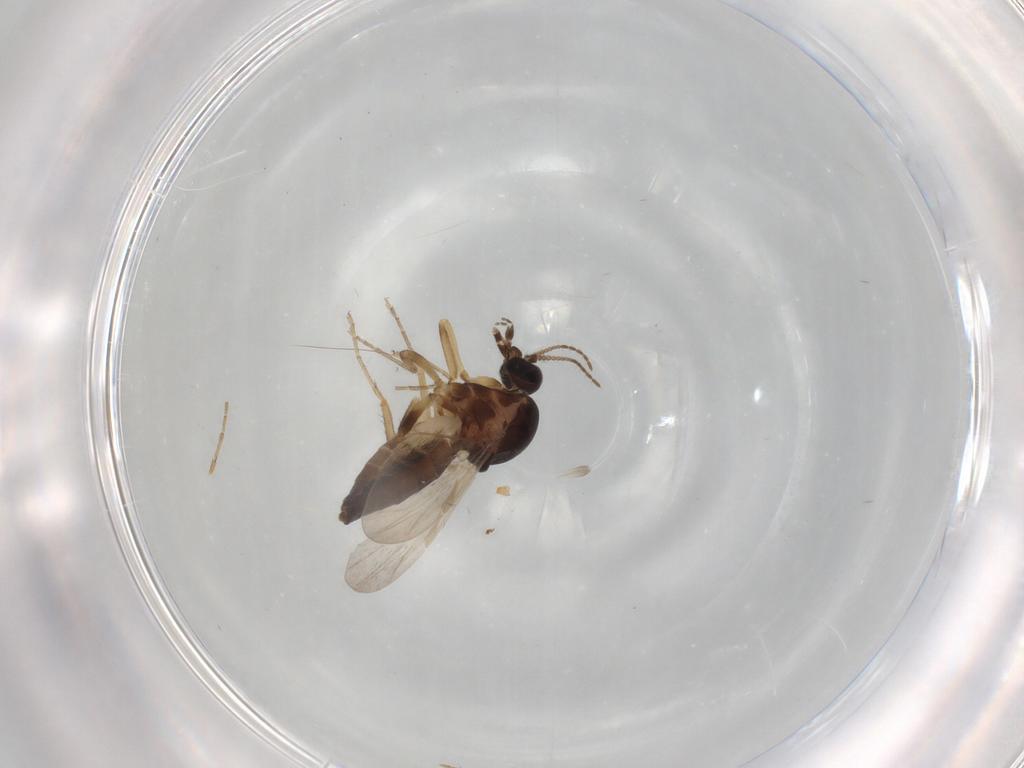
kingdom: Animalia
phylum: Arthropoda
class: Insecta
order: Diptera
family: Ceratopogonidae
